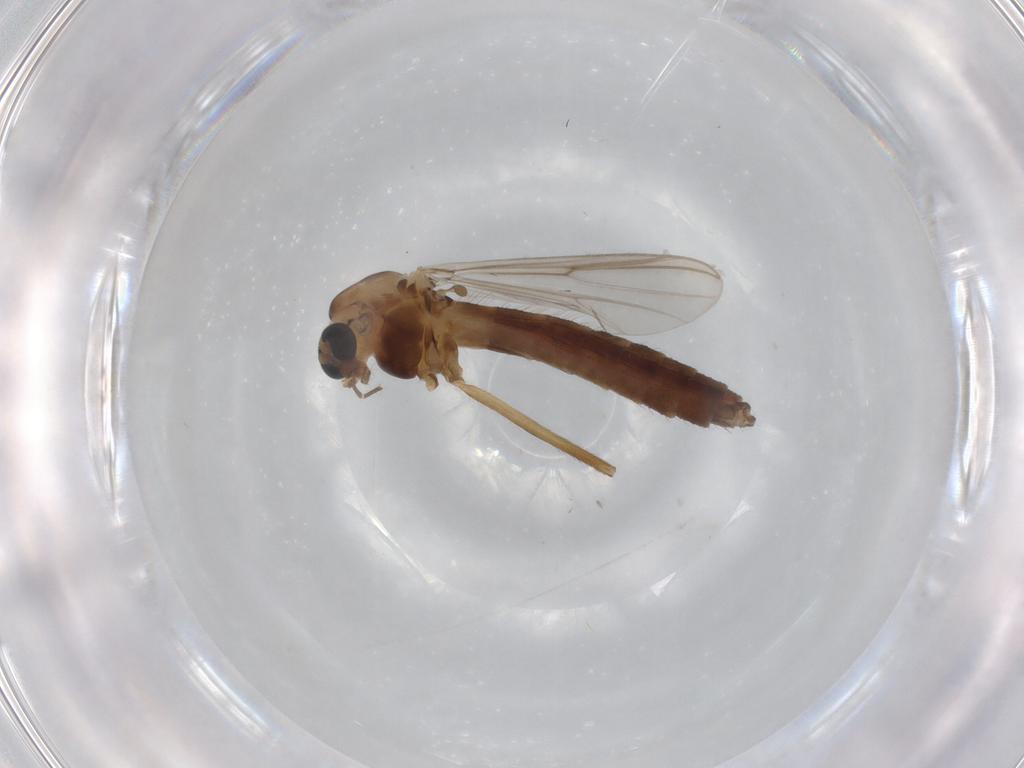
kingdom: Animalia
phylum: Arthropoda
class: Insecta
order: Diptera
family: Chironomidae
